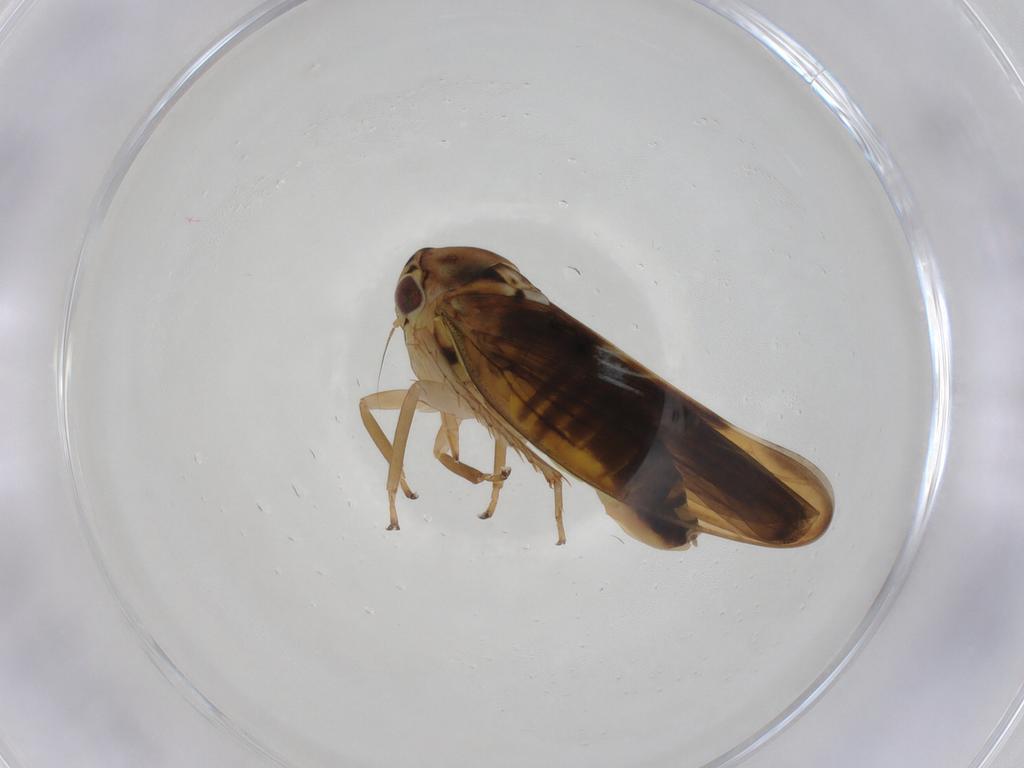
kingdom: Animalia
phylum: Arthropoda
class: Insecta
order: Hemiptera
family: Cicadellidae
